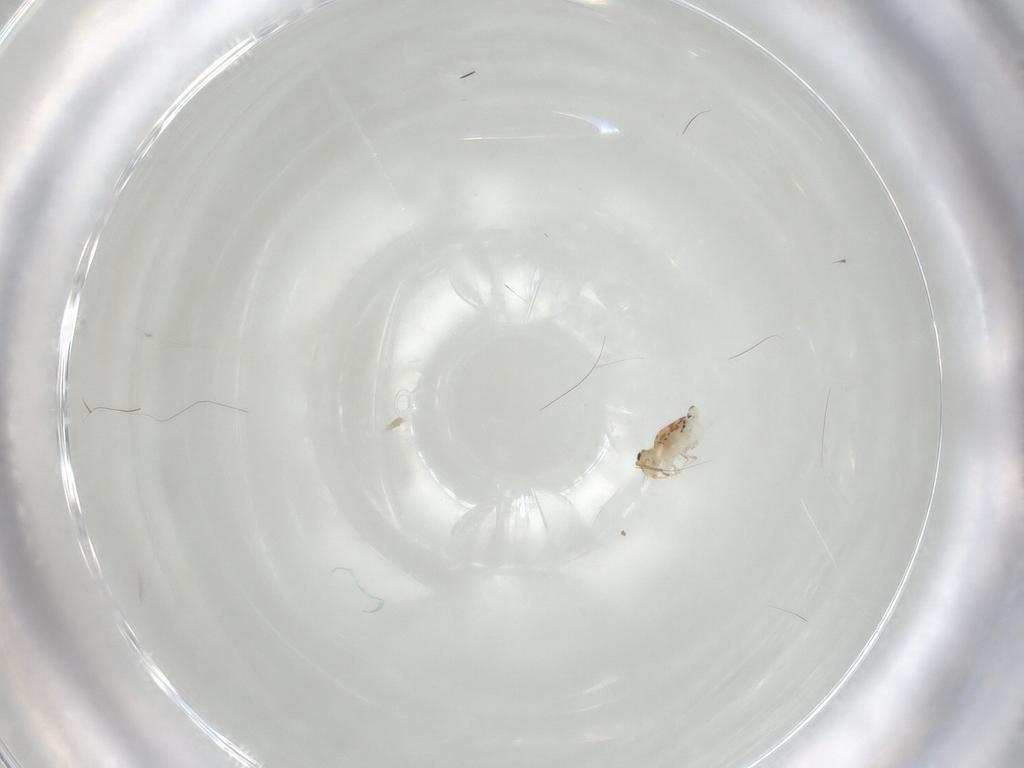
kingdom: Animalia
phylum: Arthropoda
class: Collembola
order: Symphypleona
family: Bourletiellidae
